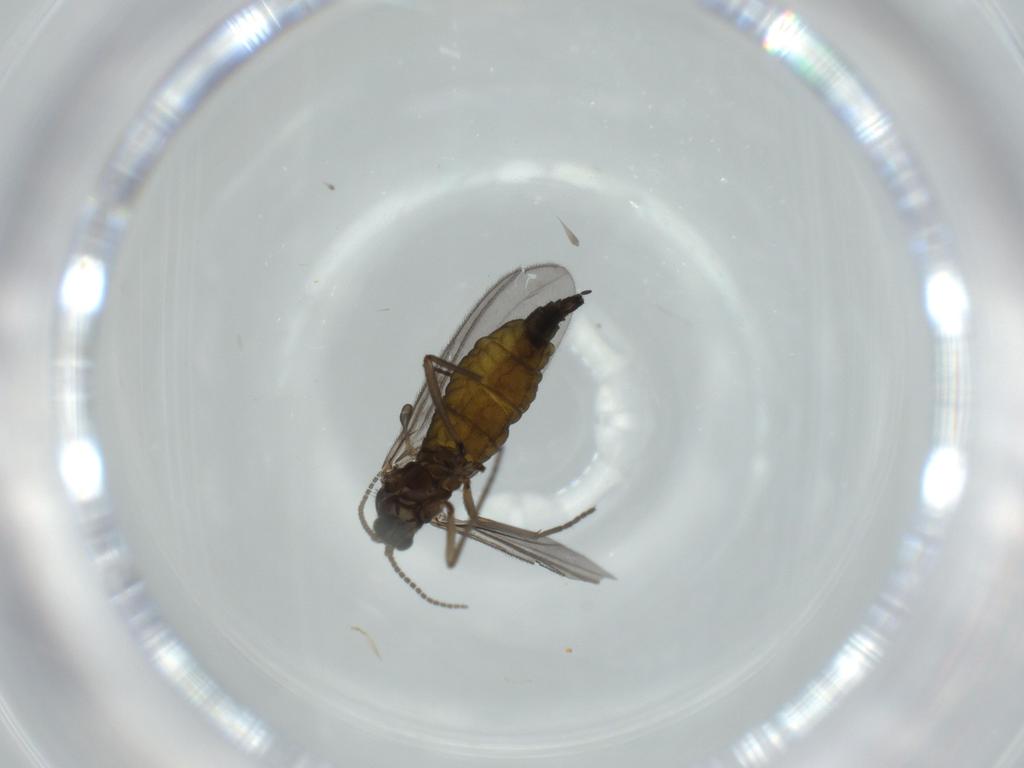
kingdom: Animalia
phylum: Arthropoda
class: Insecta
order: Diptera
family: Sciaridae
